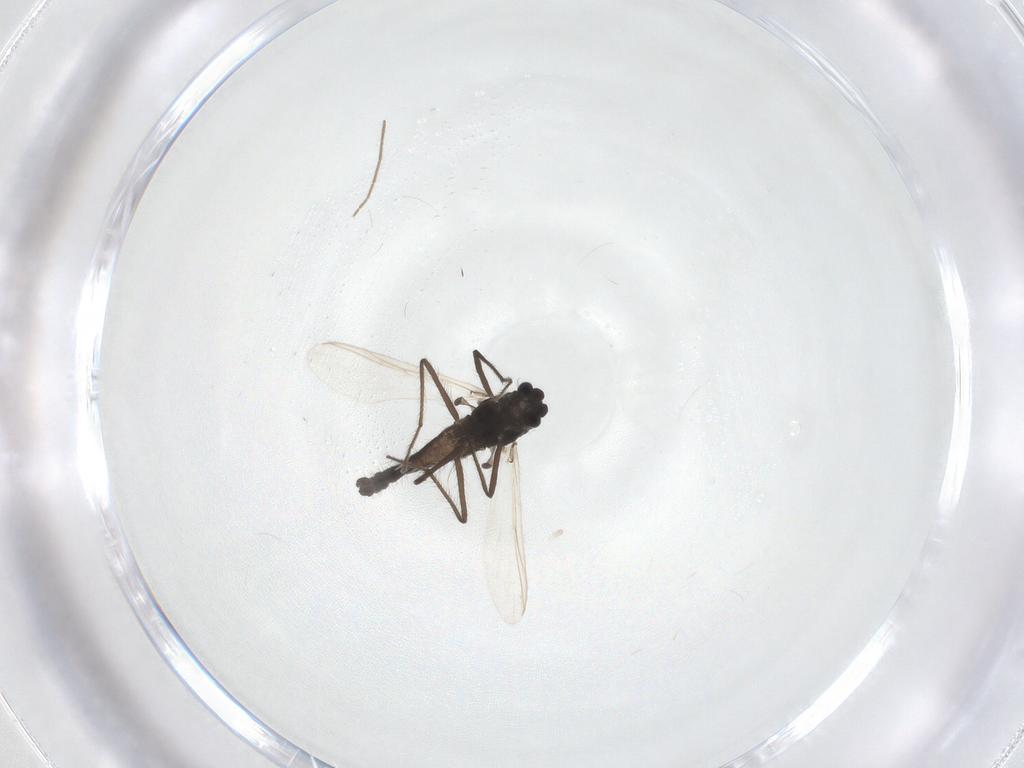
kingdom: Animalia
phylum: Arthropoda
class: Insecta
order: Diptera
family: Chironomidae
